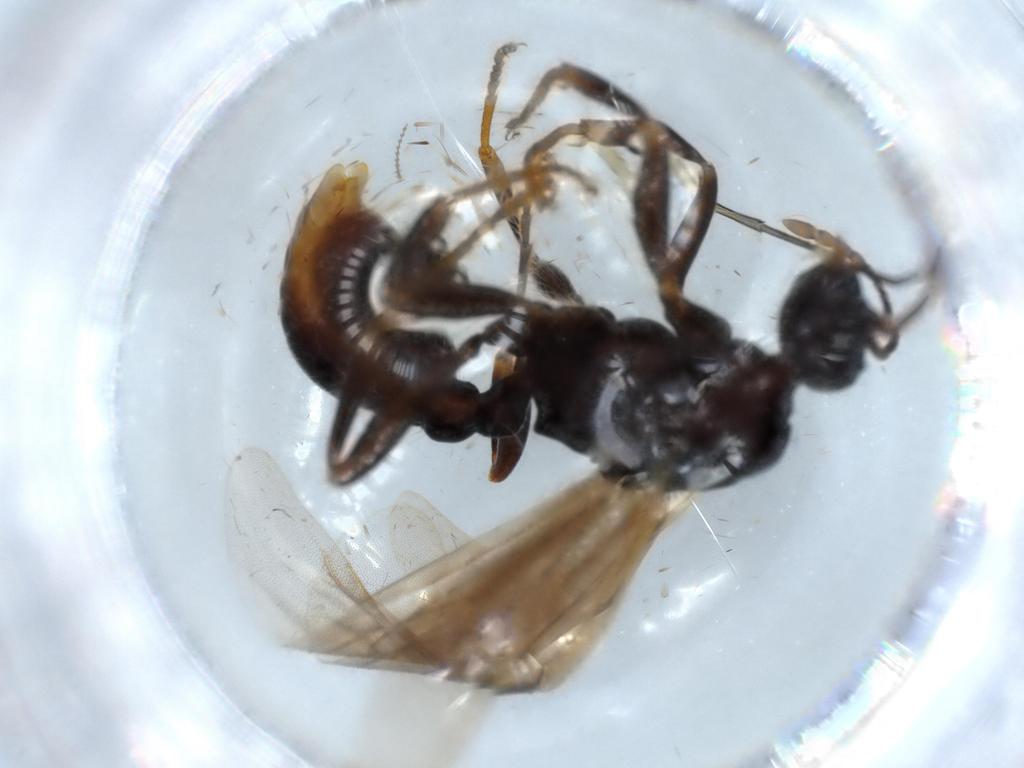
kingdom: Animalia
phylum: Arthropoda
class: Insecta
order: Hymenoptera
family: Formicidae
